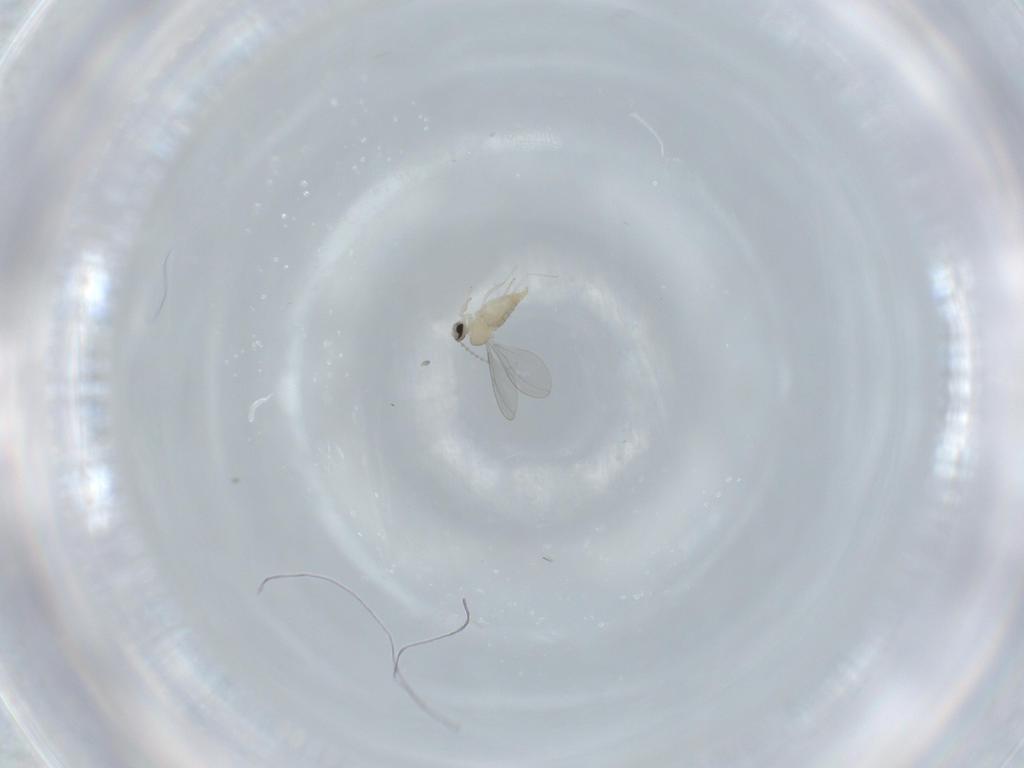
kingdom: Animalia
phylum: Arthropoda
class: Insecta
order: Diptera
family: Cecidomyiidae
